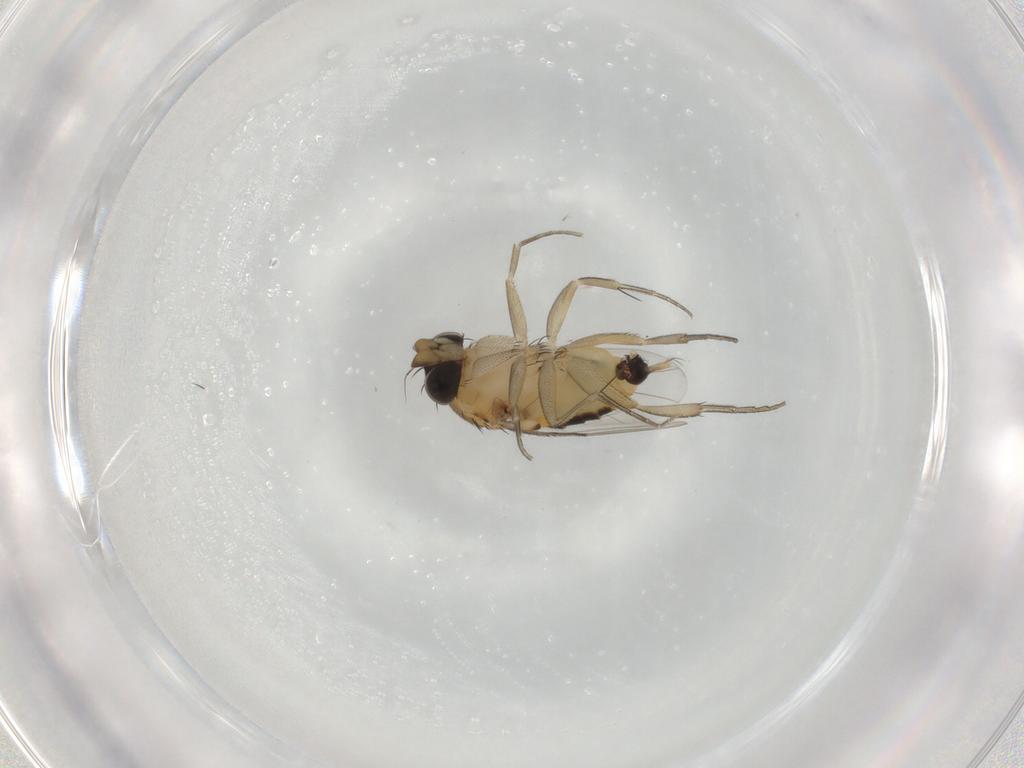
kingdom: Animalia
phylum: Arthropoda
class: Insecta
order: Diptera
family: Phoridae
